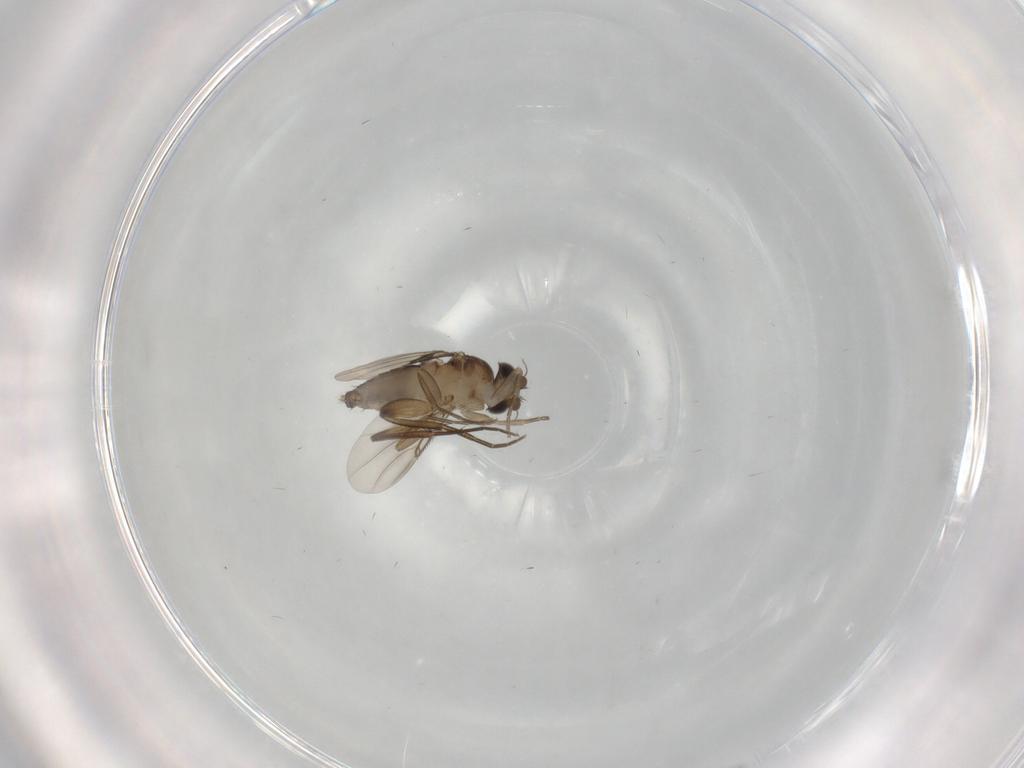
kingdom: Animalia
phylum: Arthropoda
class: Insecta
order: Diptera
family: Phoridae
